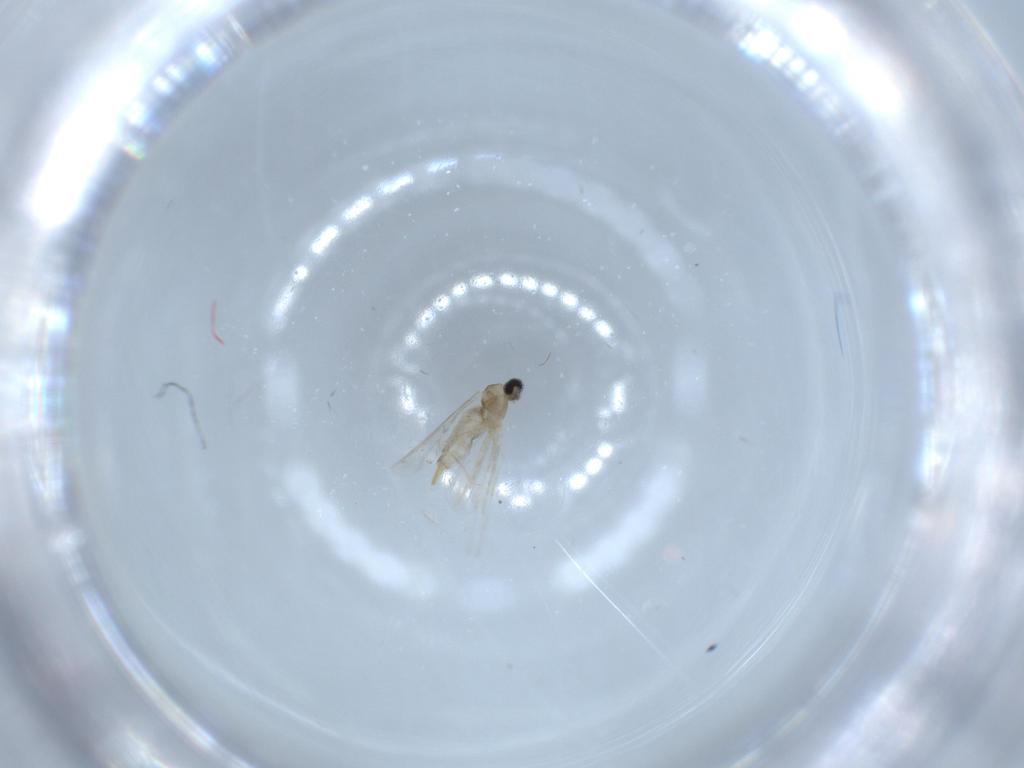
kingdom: Animalia
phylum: Arthropoda
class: Insecta
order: Diptera
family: Cecidomyiidae
